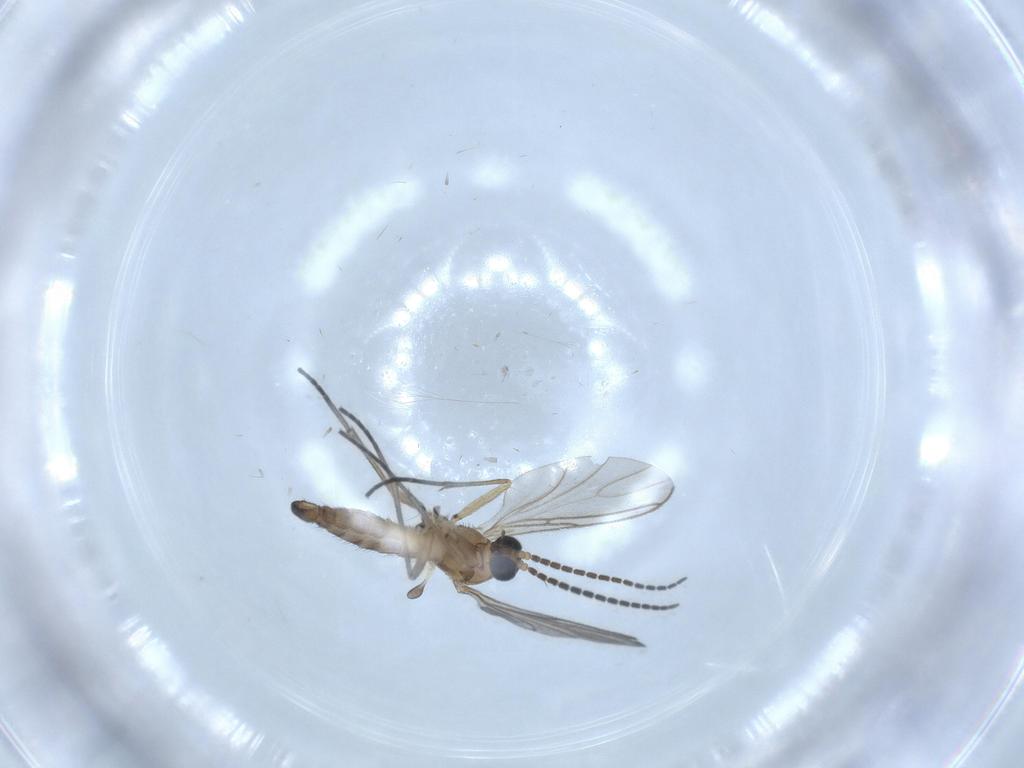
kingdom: Animalia
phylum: Arthropoda
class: Insecta
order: Diptera
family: Sciaridae
